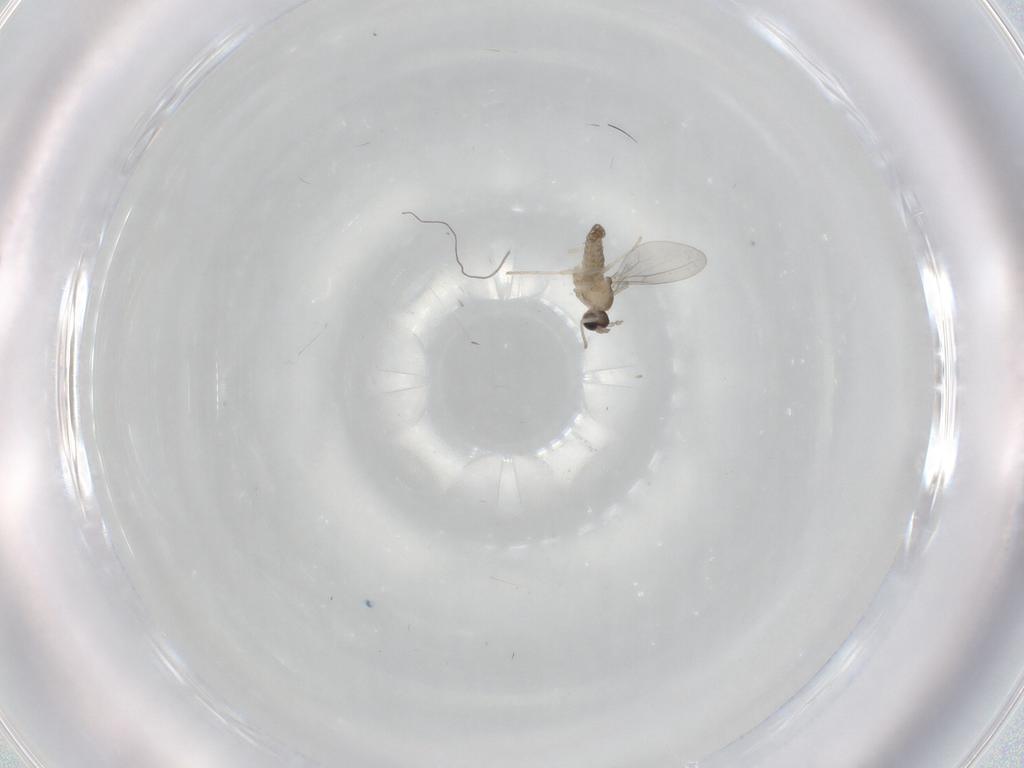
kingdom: Animalia
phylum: Arthropoda
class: Insecta
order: Diptera
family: Cecidomyiidae
